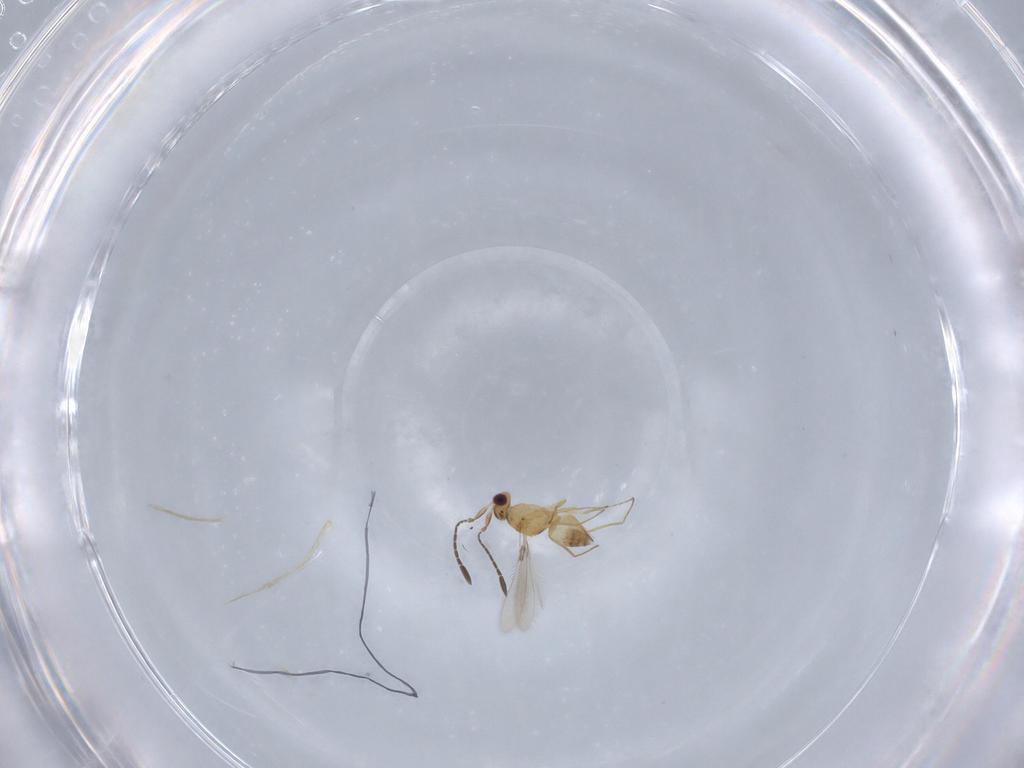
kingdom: Animalia
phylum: Arthropoda
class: Insecta
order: Hymenoptera
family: Mymaridae
